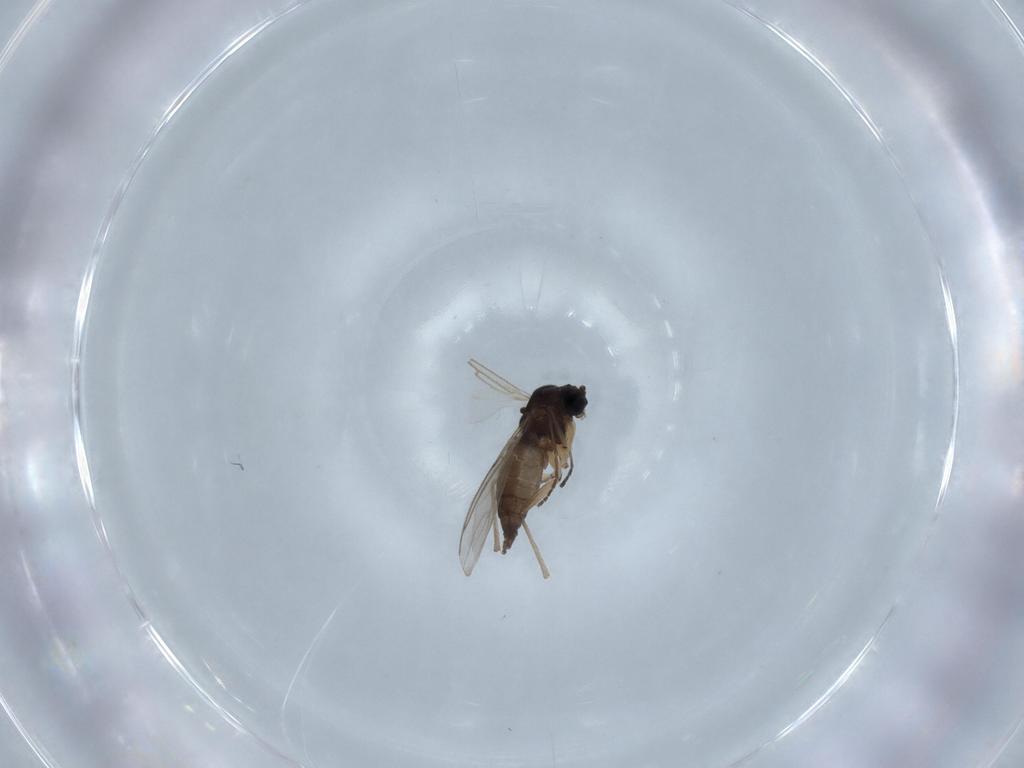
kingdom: Animalia
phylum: Arthropoda
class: Insecta
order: Diptera
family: Sciaridae
